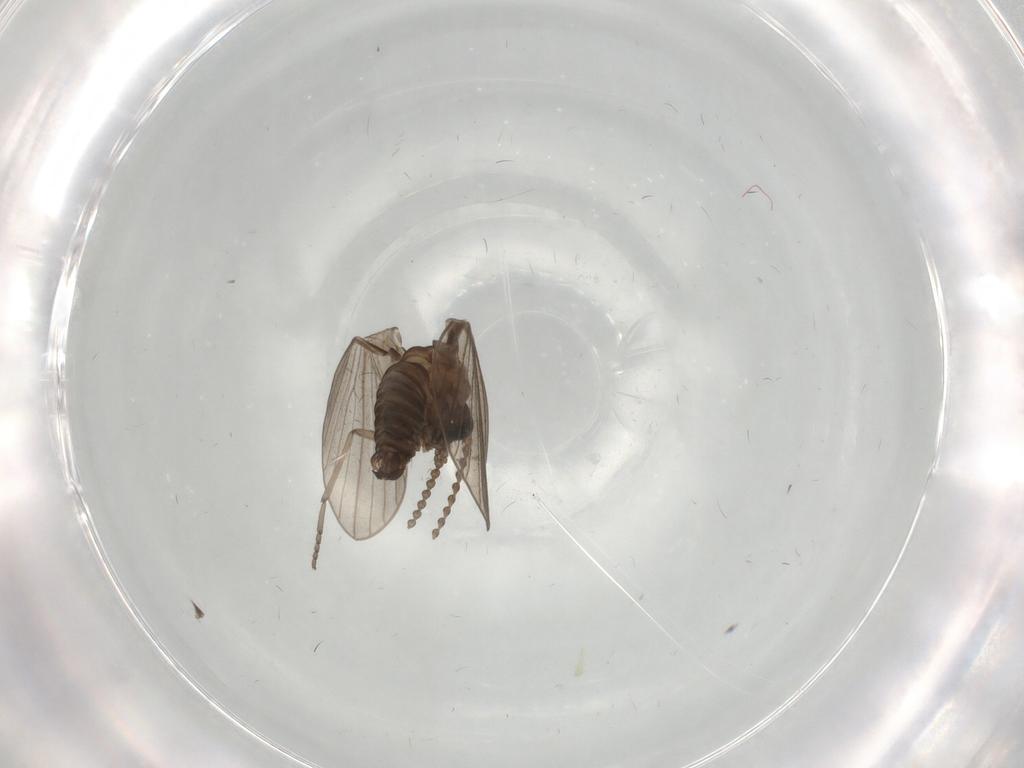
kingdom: Animalia
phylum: Arthropoda
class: Insecta
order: Diptera
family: Psychodidae
